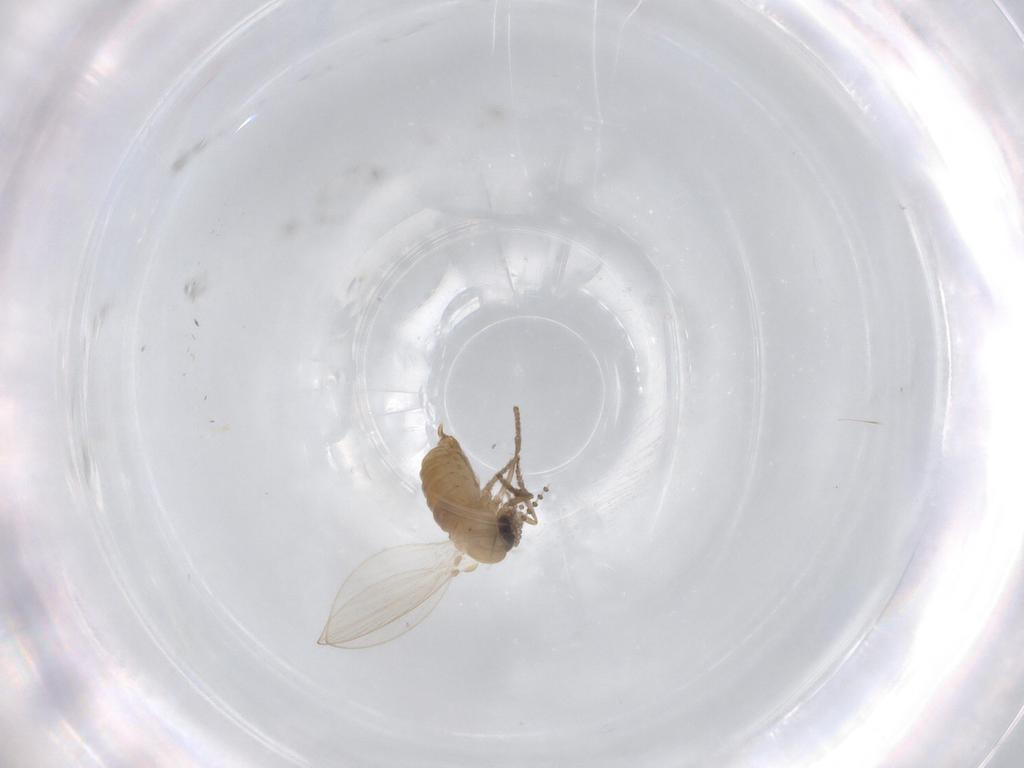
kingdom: Animalia
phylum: Arthropoda
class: Insecta
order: Diptera
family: Psychodidae
